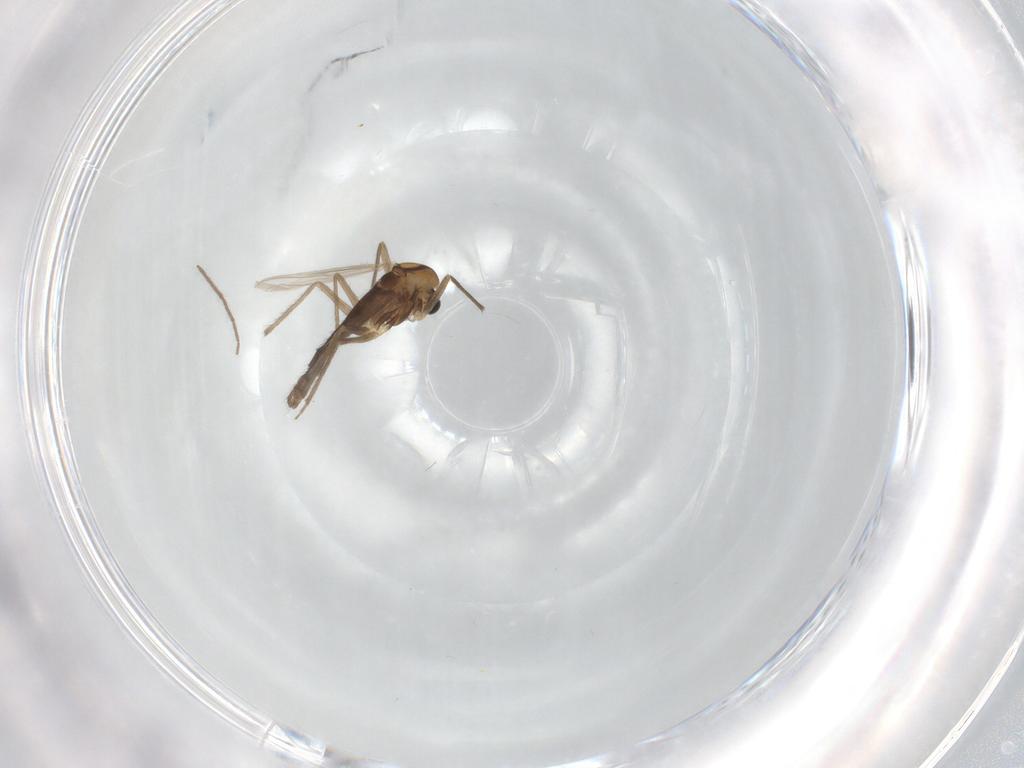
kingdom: Animalia
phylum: Arthropoda
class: Insecta
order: Diptera
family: Chironomidae
